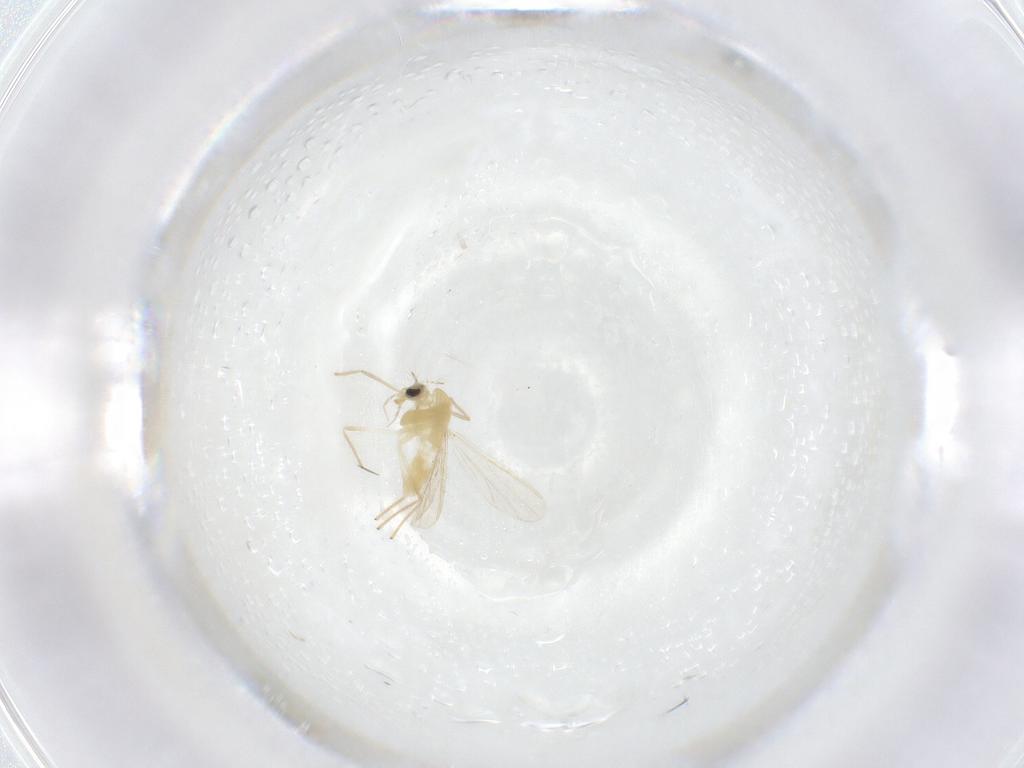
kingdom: Animalia
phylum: Arthropoda
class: Insecta
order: Diptera
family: Chironomidae
